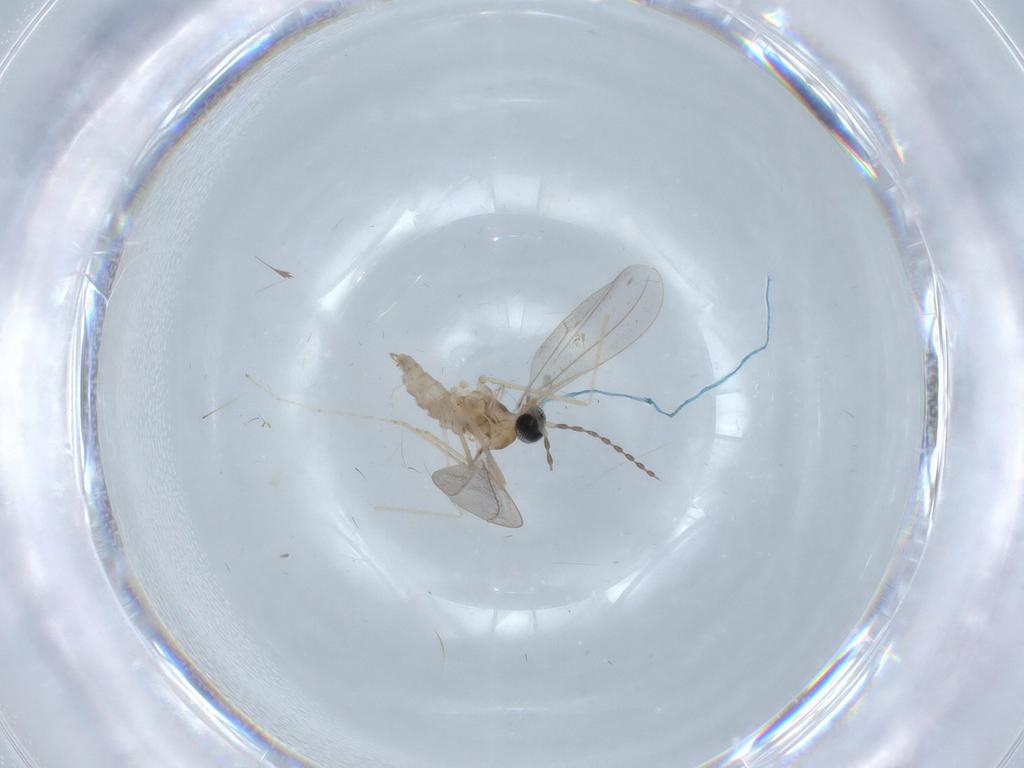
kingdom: Animalia
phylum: Arthropoda
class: Insecta
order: Diptera
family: Cecidomyiidae
